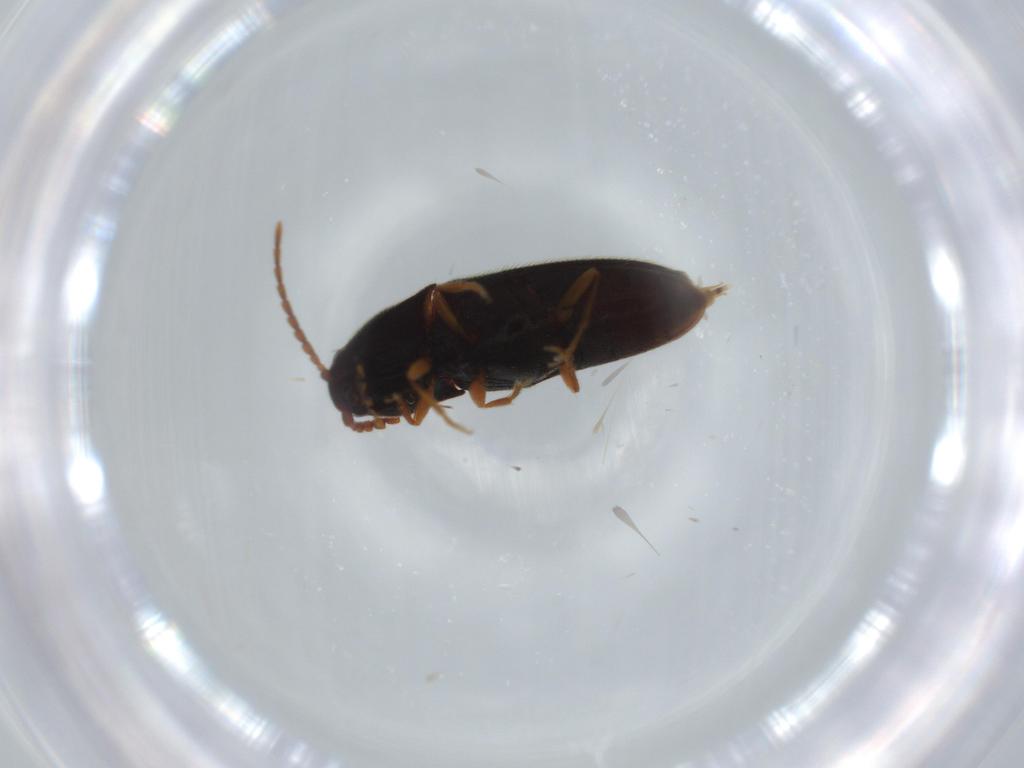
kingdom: Animalia
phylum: Arthropoda
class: Insecta
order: Coleoptera
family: Elateridae
